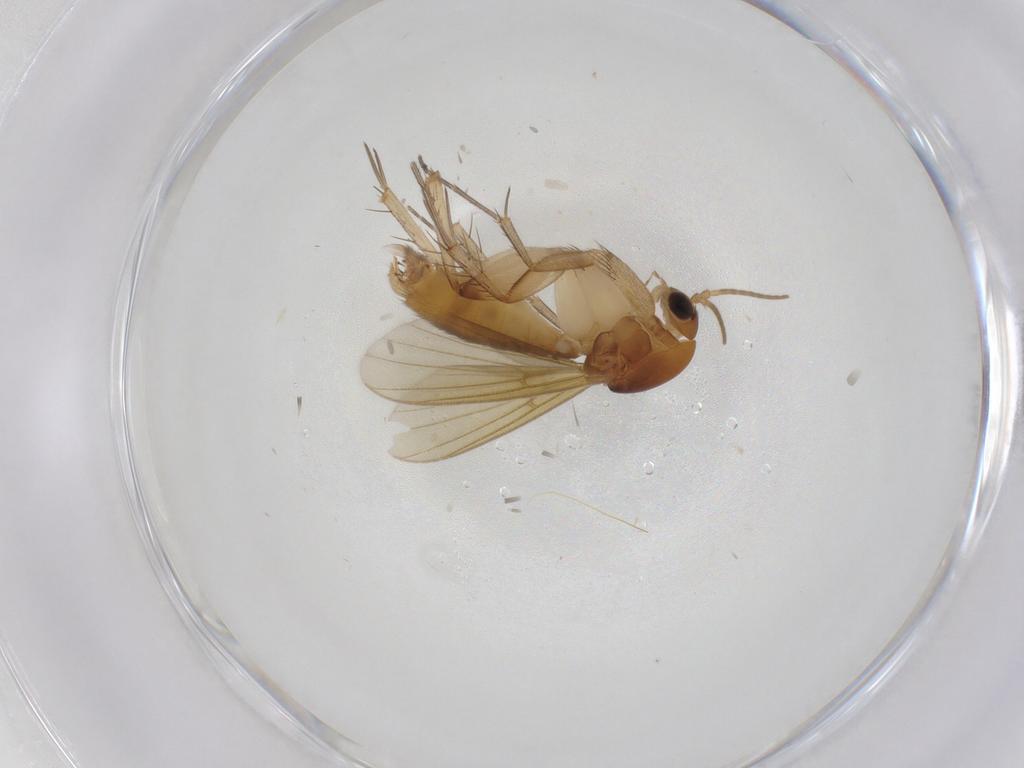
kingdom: Animalia
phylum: Arthropoda
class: Insecta
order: Diptera
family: Mycetophilidae
